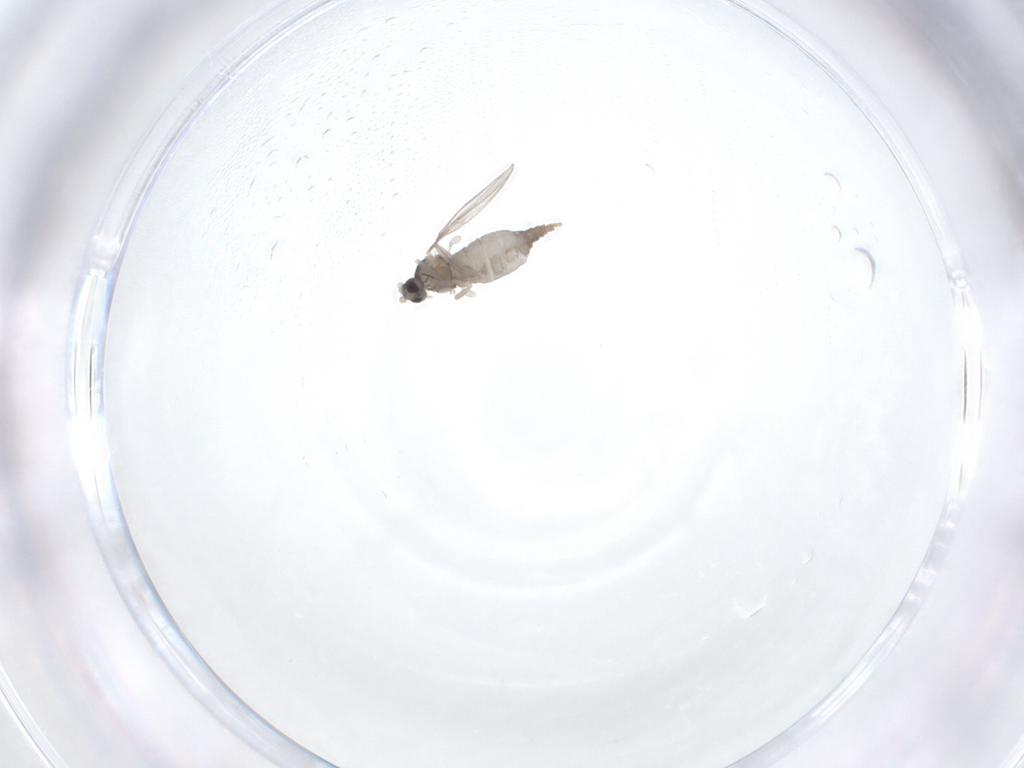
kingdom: Animalia
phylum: Arthropoda
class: Insecta
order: Diptera
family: Cecidomyiidae
